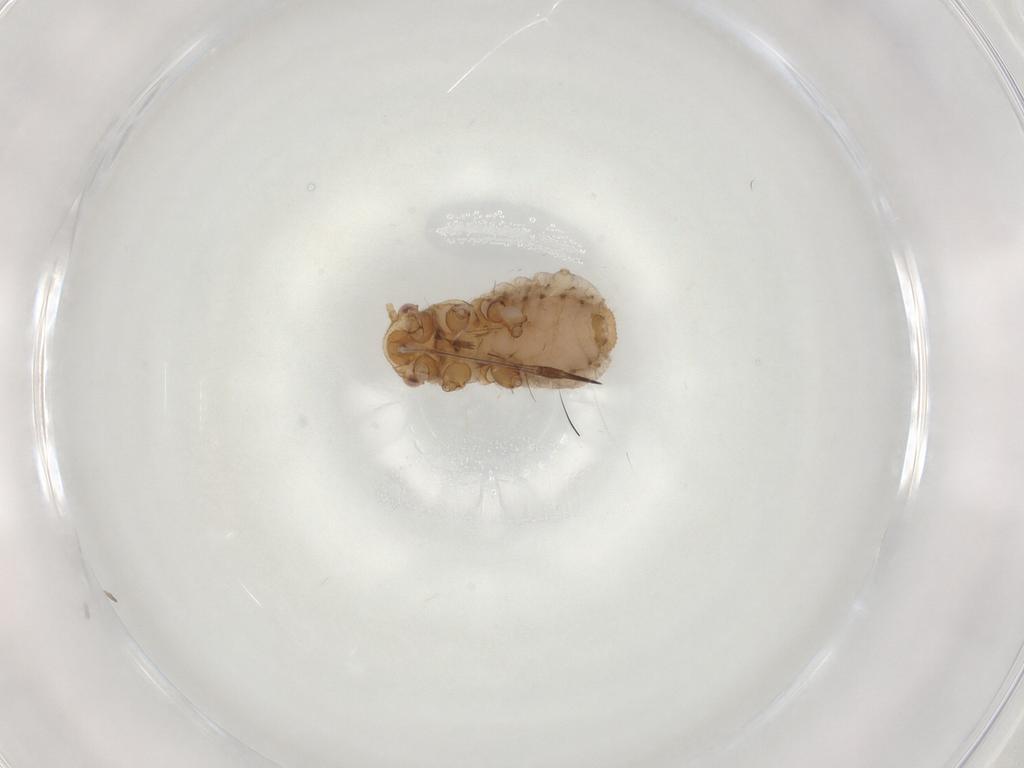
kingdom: Animalia
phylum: Arthropoda
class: Insecta
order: Hemiptera
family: Aphididae
